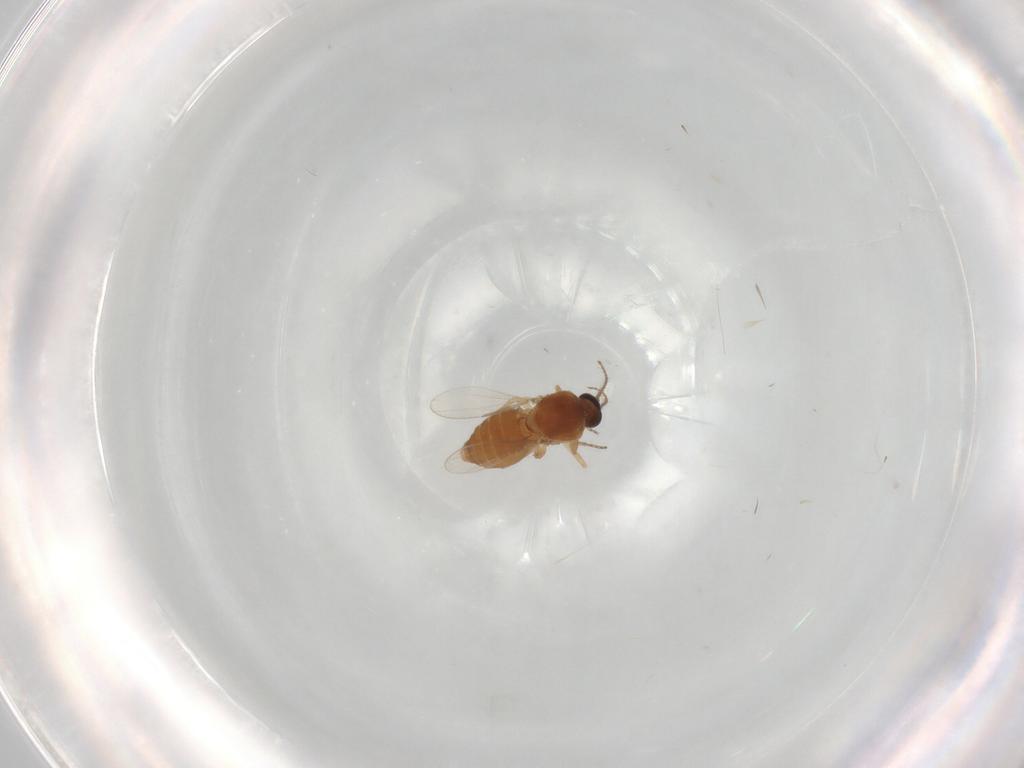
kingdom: Animalia
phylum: Arthropoda
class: Insecta
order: Diptera
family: Ceratopogonidae
